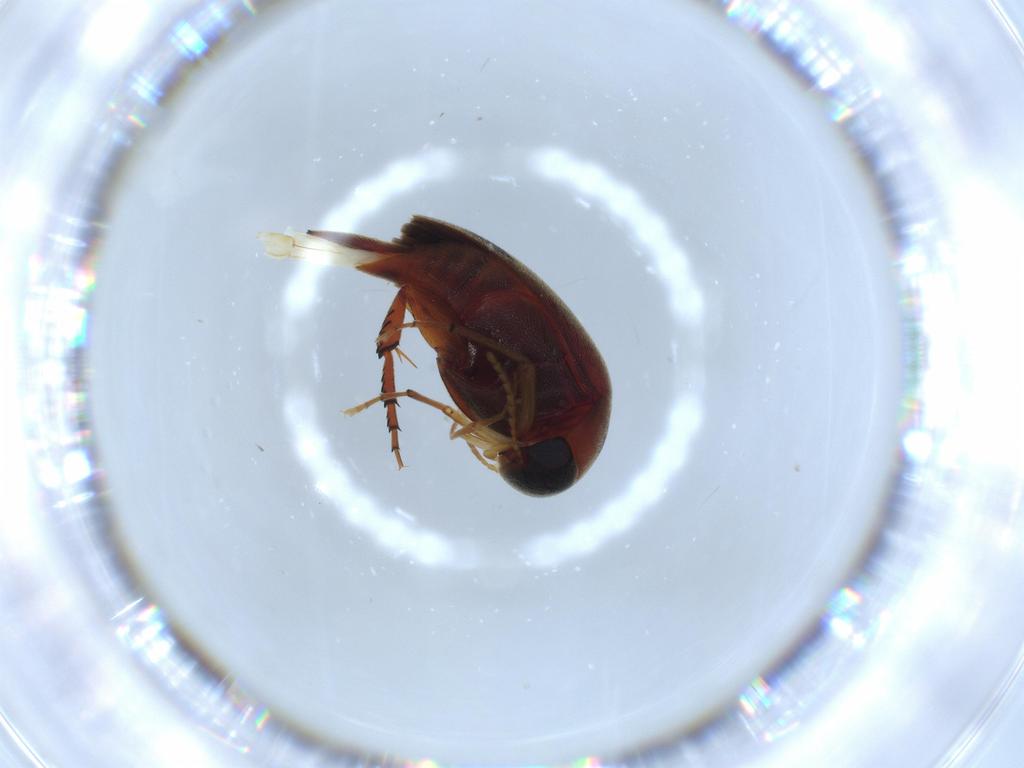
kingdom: Animalia
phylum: Arthropoda
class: Insecta
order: Coleoptera
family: Mordellidae
